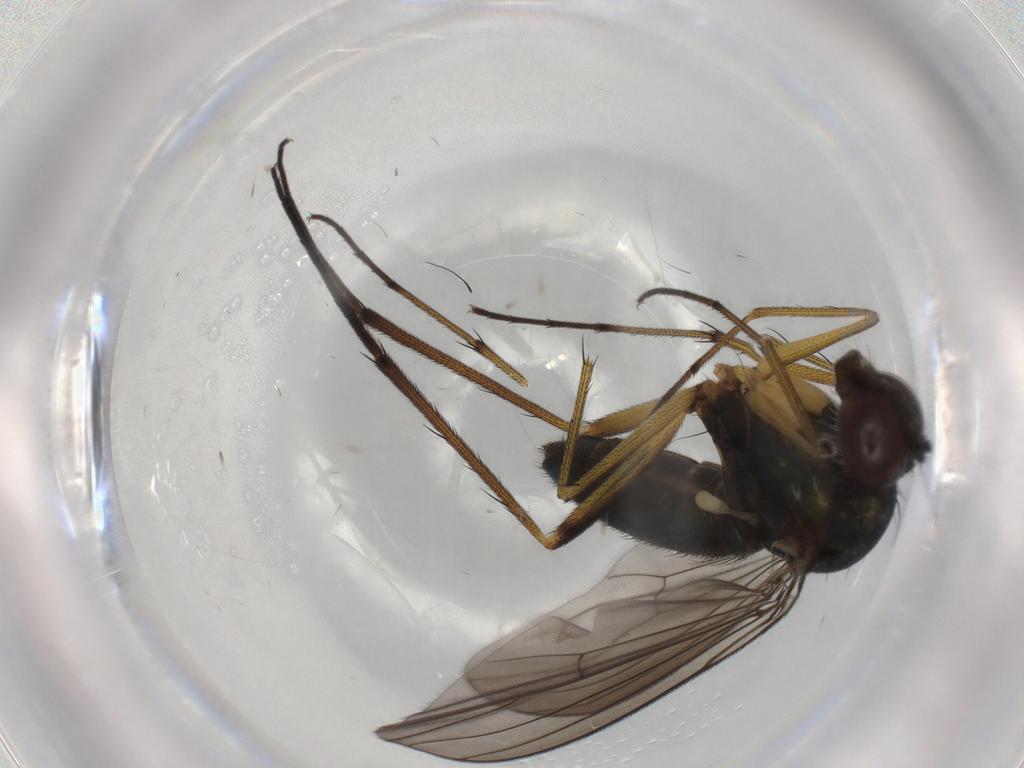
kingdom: Animalia
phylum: Arthropoda
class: Insecta
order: Diptera
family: Dolichopodidae
